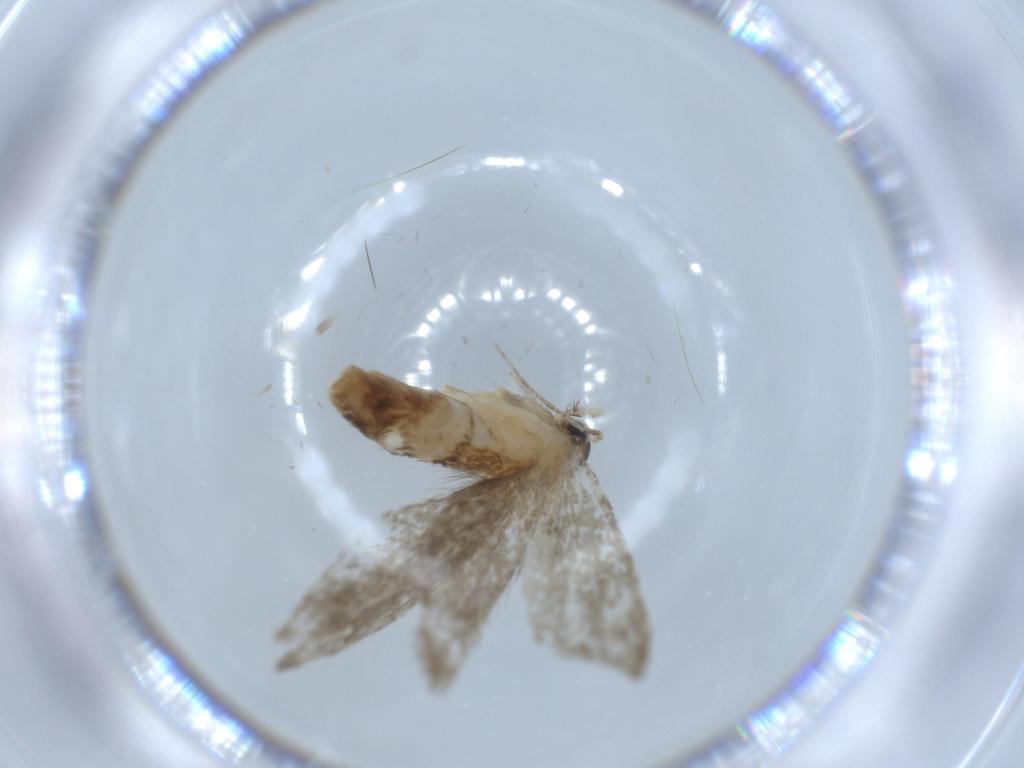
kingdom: Animalia
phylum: Arthropoda
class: Insecta
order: Lepidoptera
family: Tineidae
